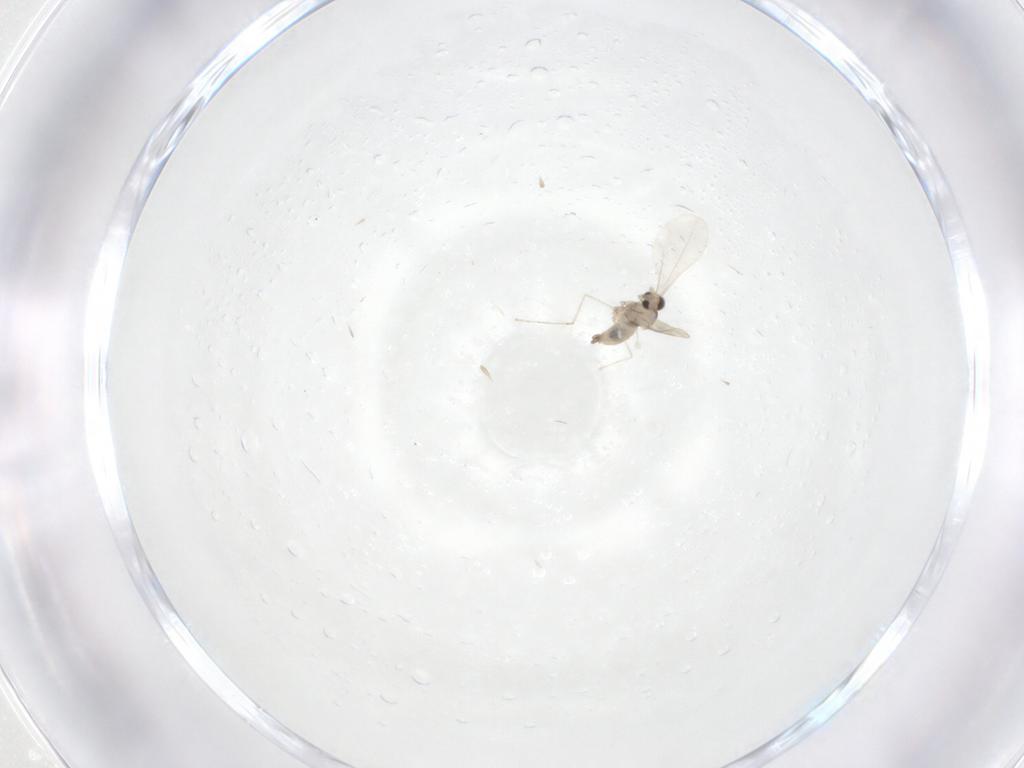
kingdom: Animalia
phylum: Arthropoda
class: Insecta
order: Diptera
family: Cecidomyiidae
